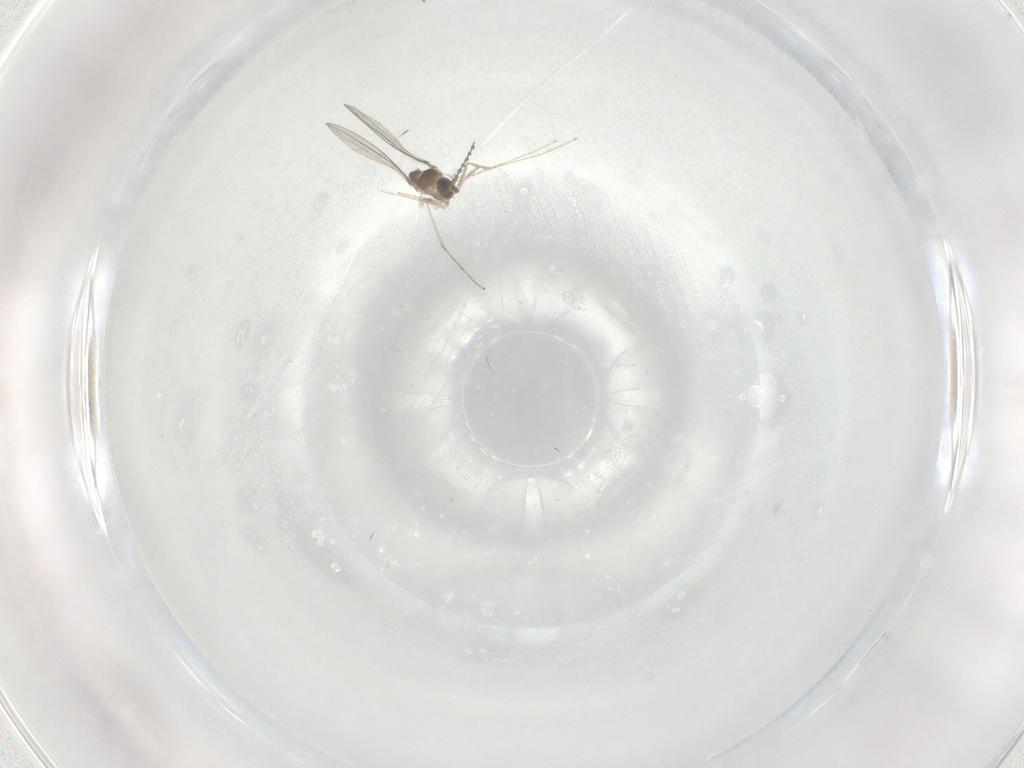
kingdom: Animalia
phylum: Arthropoda
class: Insecta
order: Diptera
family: Cecidomyiidae
